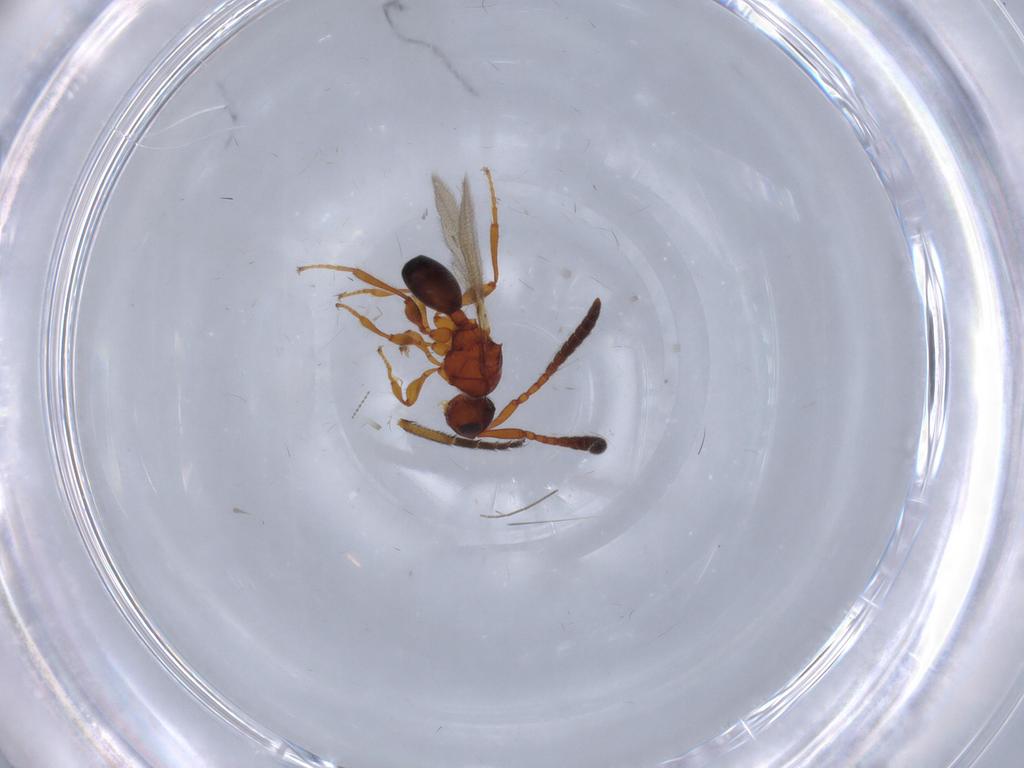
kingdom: Animalia
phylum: Arthropoda
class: Insecta
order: Hymenoptera
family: Diapriidae
